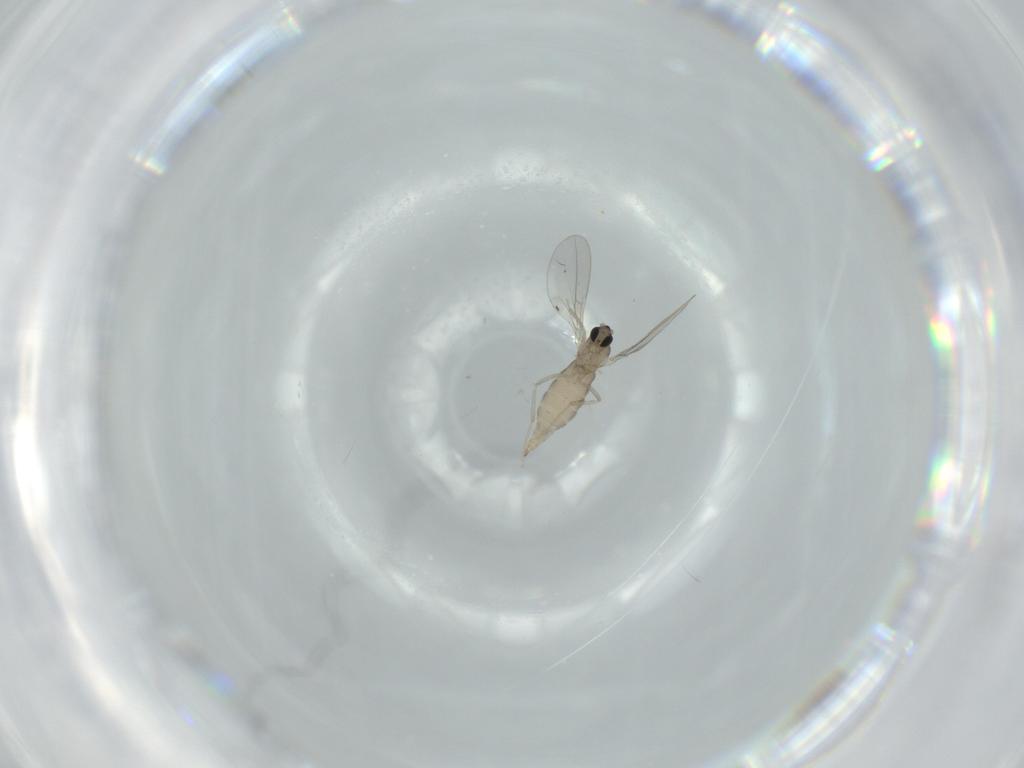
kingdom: Animalia
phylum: Arthropoda
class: Insecta
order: Diptera
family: Cecidomyiidae
